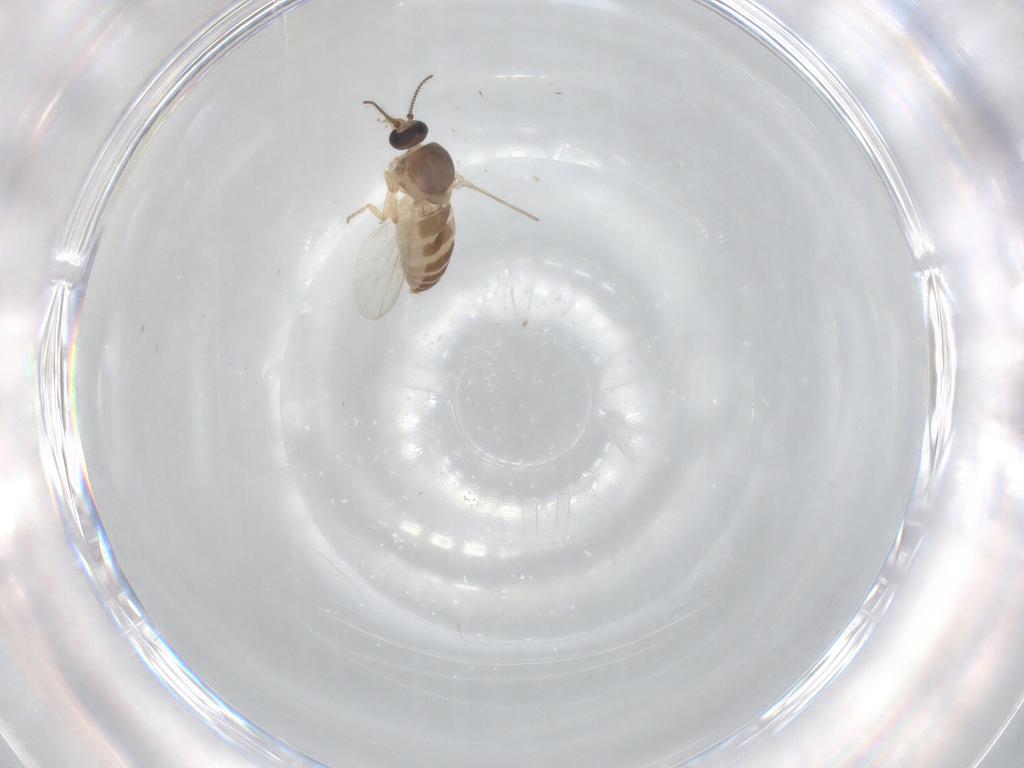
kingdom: Animalia
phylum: Arthropoda
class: Insecta
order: Diptera
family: Ceratopogonidae
